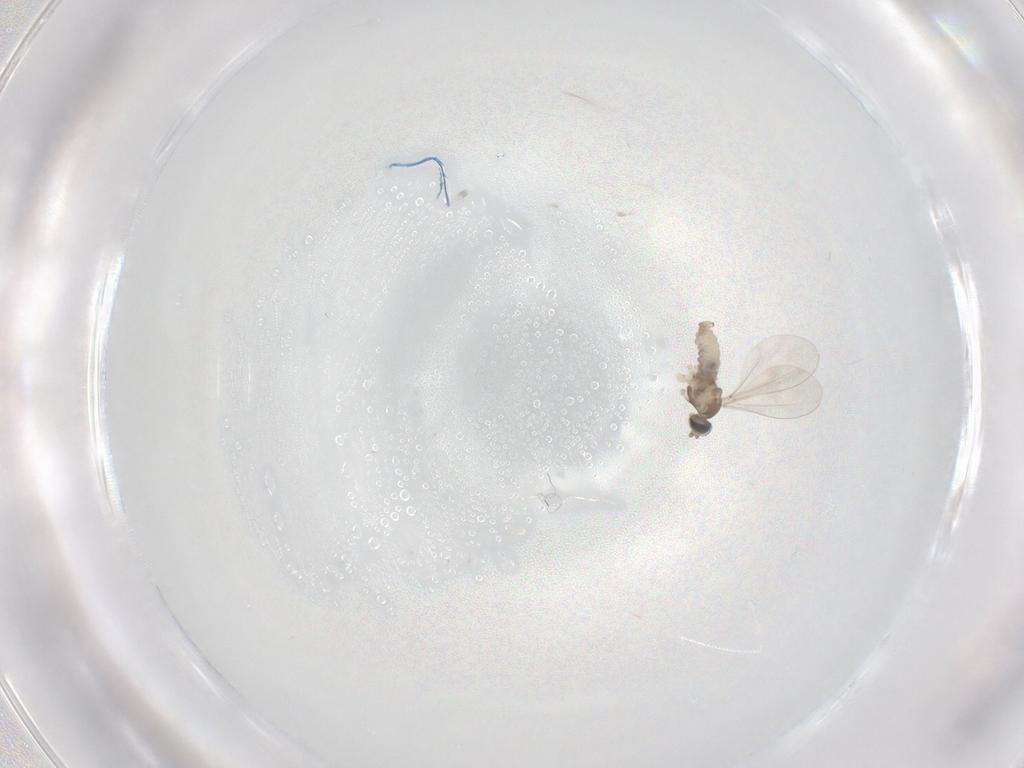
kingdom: Animalia
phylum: Arthropoda
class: Insecta
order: Diptera
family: Cecidomyiidae
